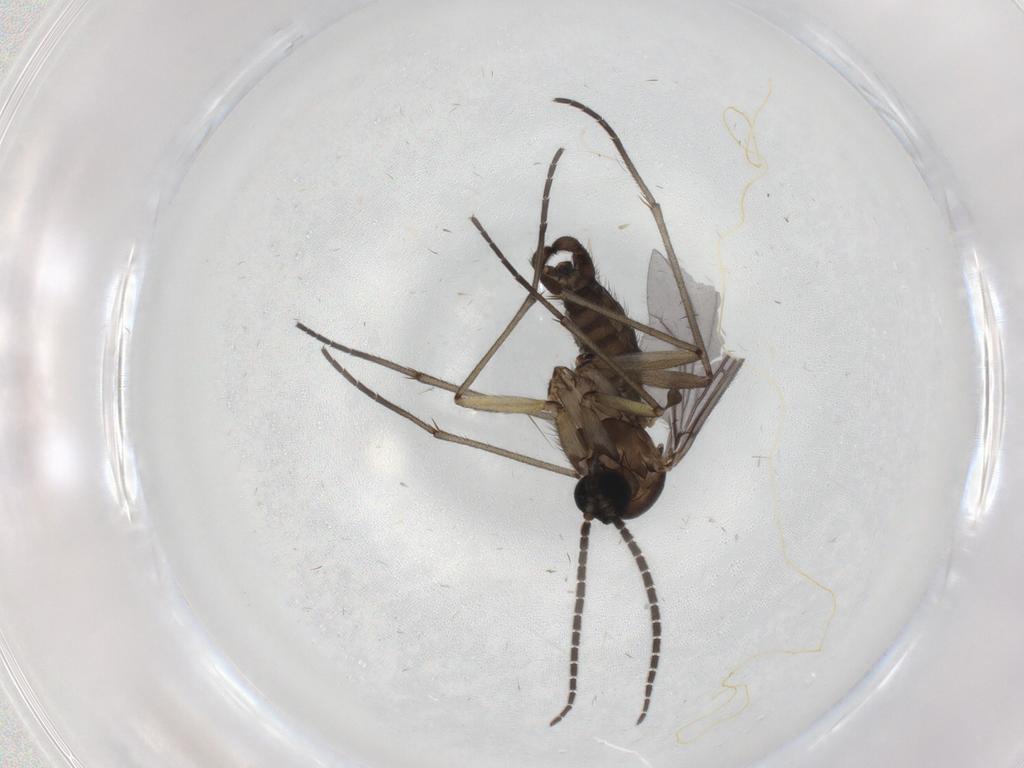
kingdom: Animalia
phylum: Arthropoda
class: Insecta
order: Diptera
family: Sciaridae
